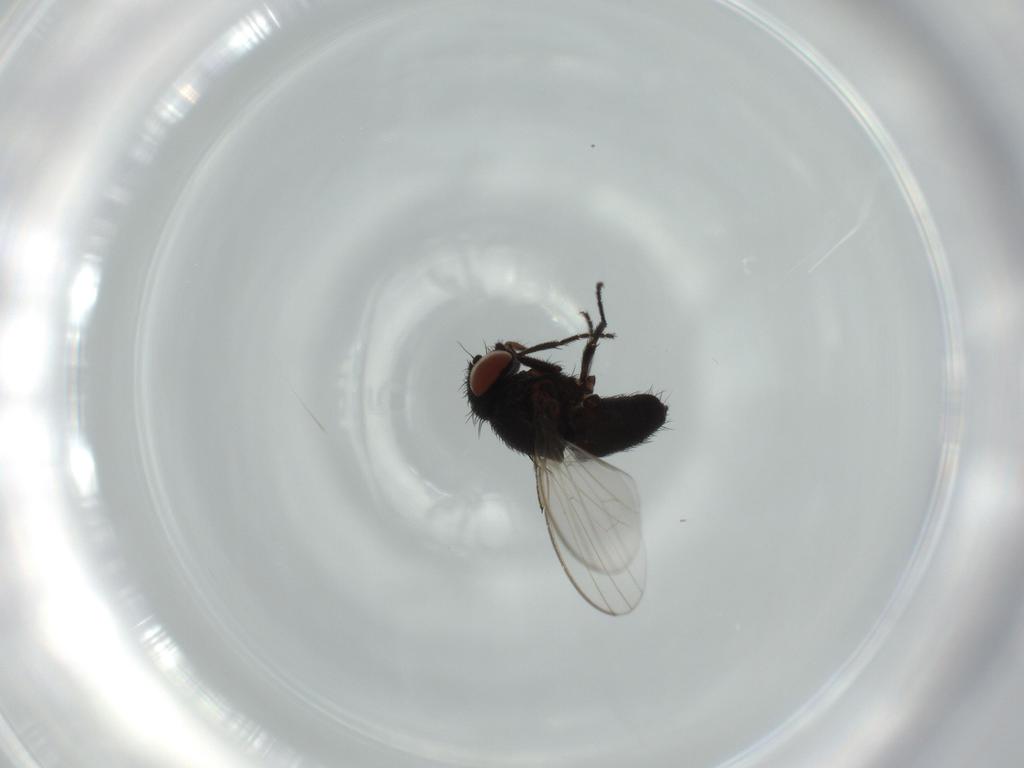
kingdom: Animalia
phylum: Arthropoda
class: Insecta
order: Diptera
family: Milichiidae
